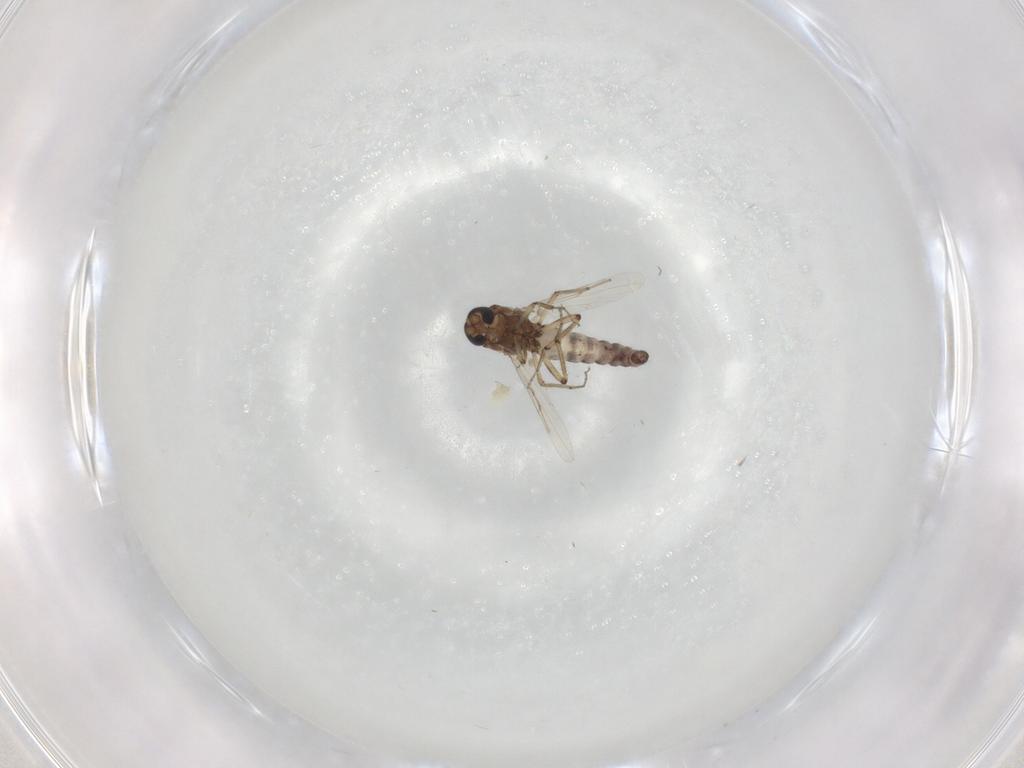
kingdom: Animalia
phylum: Arthropoda
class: Insecta
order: Diptera
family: Ceratopogonidae
